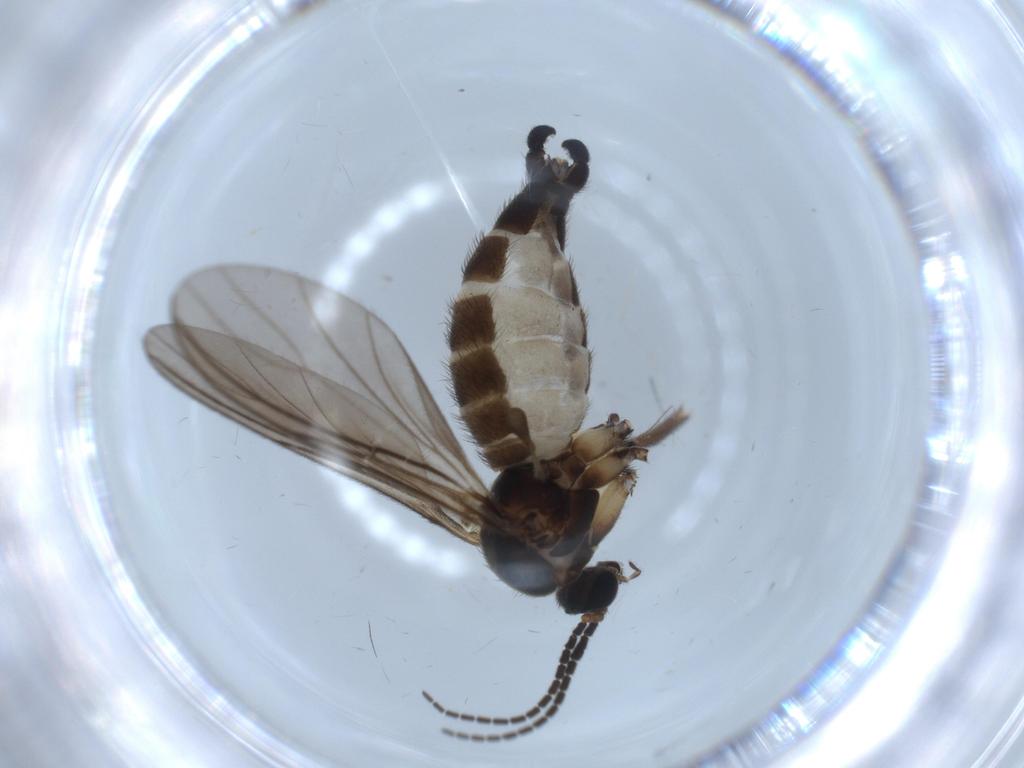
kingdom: Animalia
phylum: Arthropoda
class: Insecta
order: Diptera
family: Sciaridae
